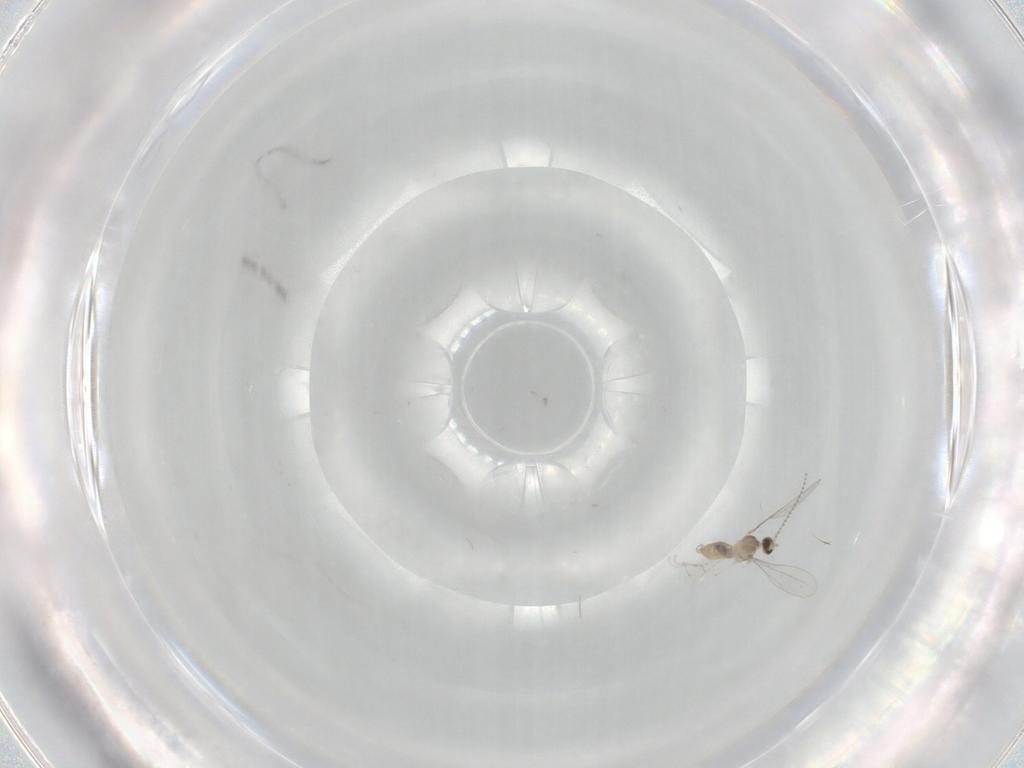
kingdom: Animalia
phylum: Arthropoda
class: Insecta
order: Diptera
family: Cecidomyiidae
